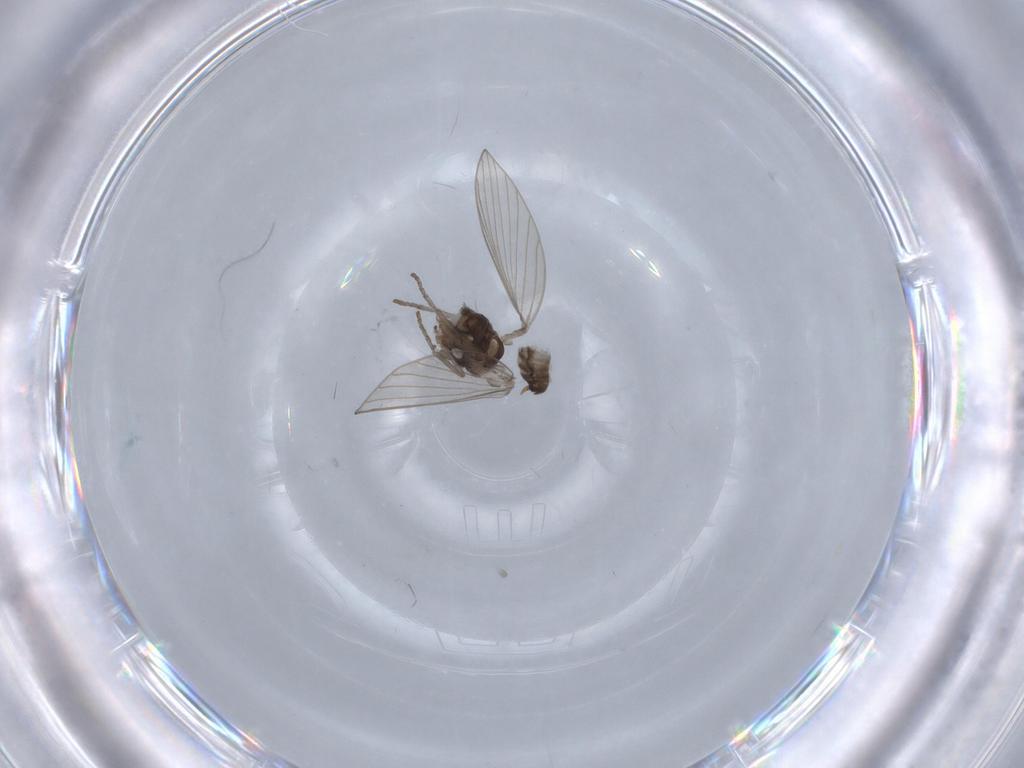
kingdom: Animalia
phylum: Arthropoda
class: Insecta
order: Diptera
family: Psychodidae
